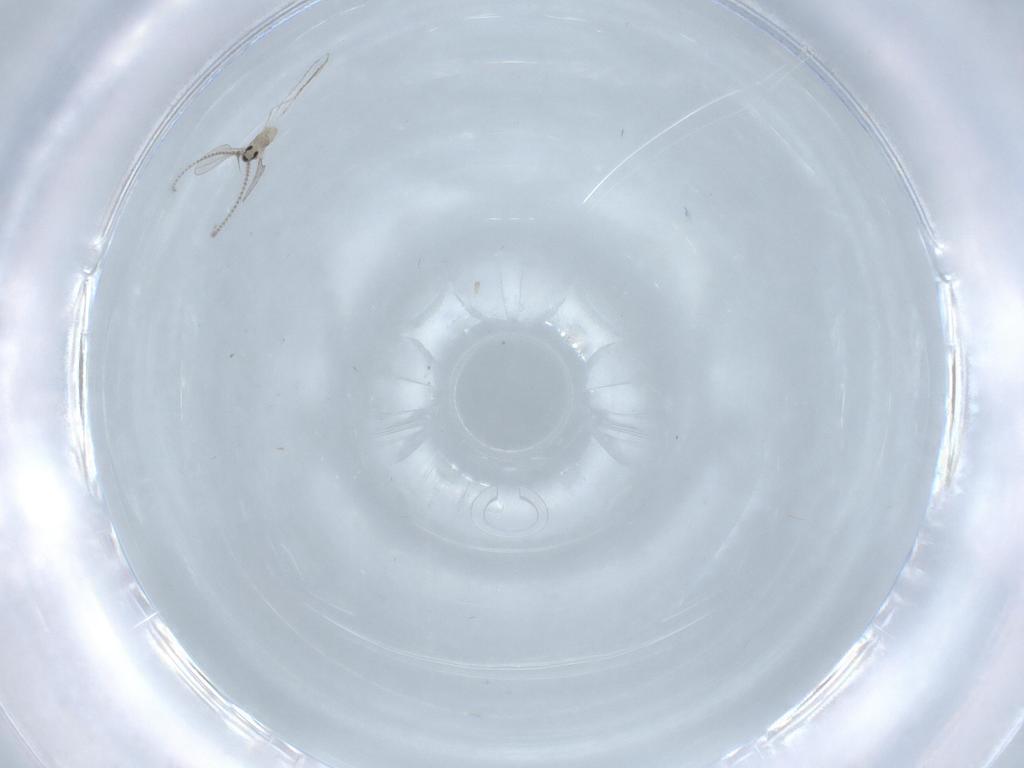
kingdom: Animalia
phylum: Arthropoda
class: Insecta
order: Diptera
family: Cecidomyiidae
